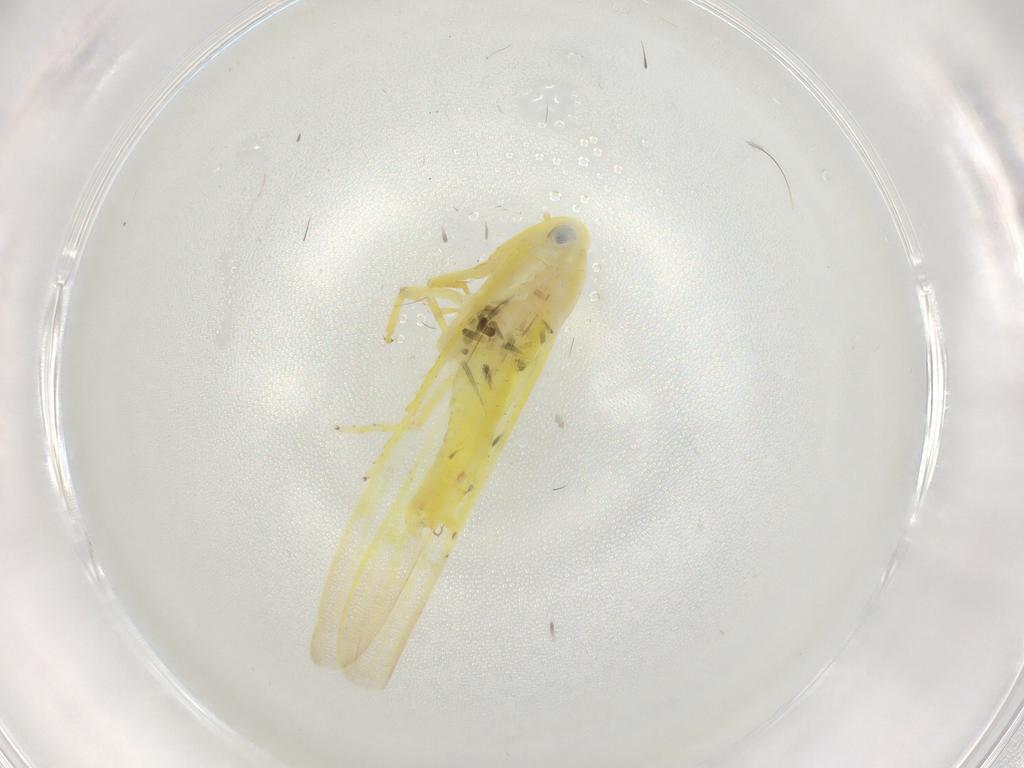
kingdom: Animalia
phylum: Arthropoda
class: Insecta
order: Hemiptera
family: Cicadellidae
